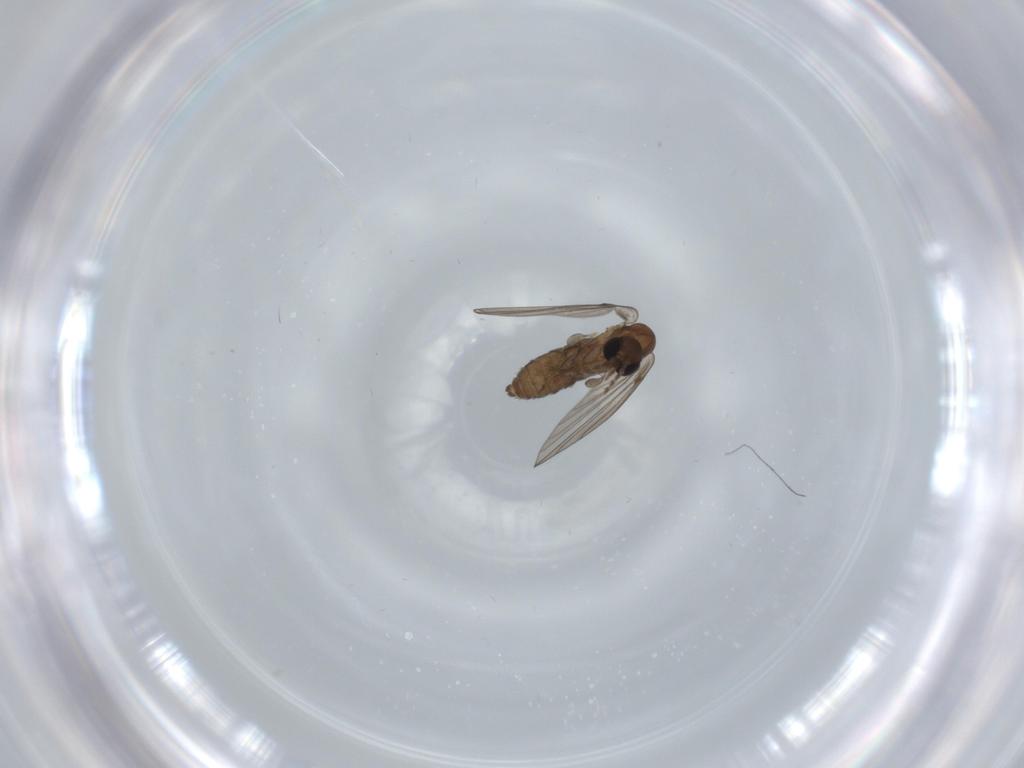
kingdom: Animalia
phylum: Arthropoda
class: Insecta
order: Diptera
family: Psychodidae
